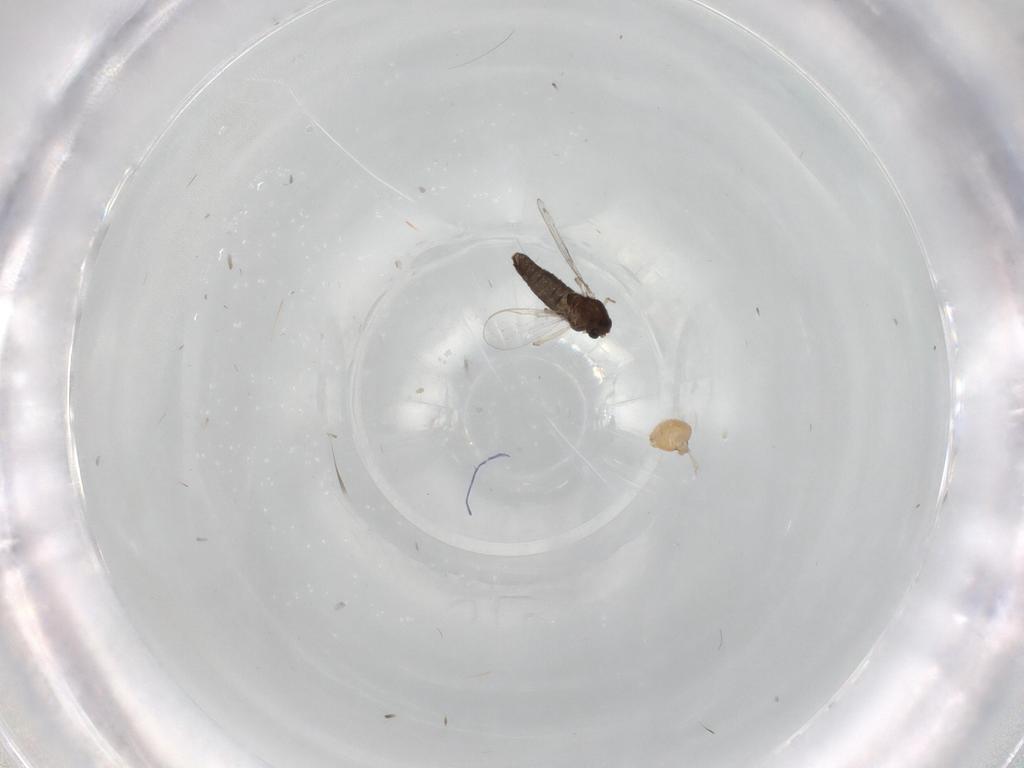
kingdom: Animalia
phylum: Arthropoda
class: Insecta
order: Diptera
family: Chironomidae
